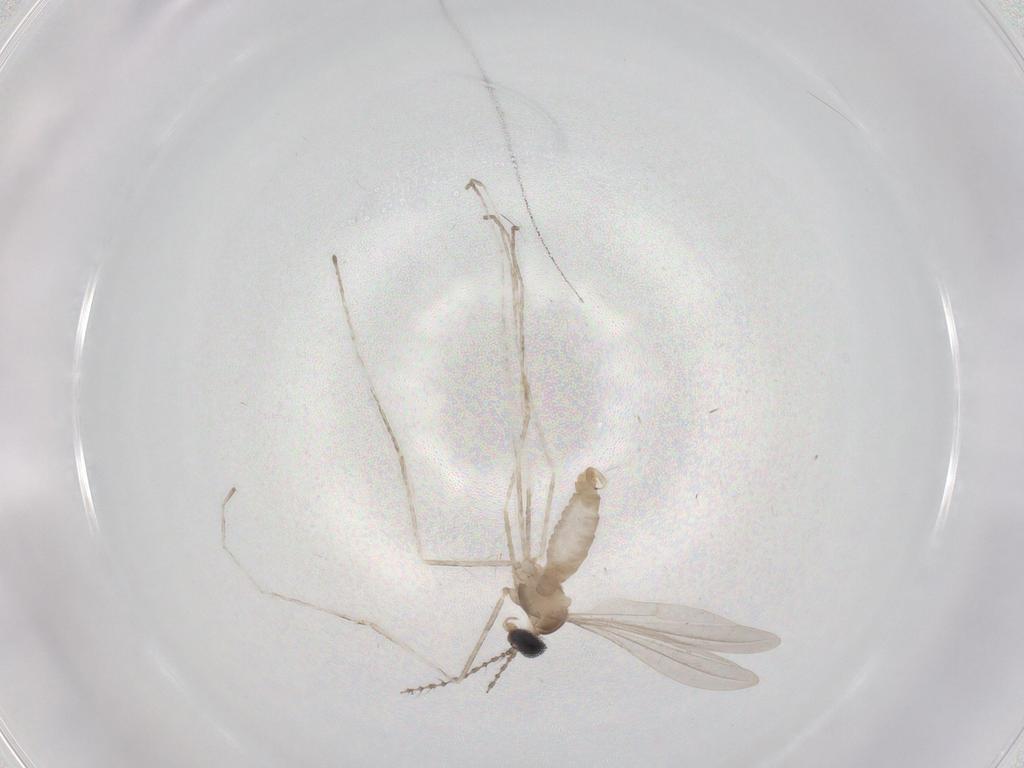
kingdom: Animalia
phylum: Arthropoda
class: Insecta
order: Diptera
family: Cecidomyiidae
